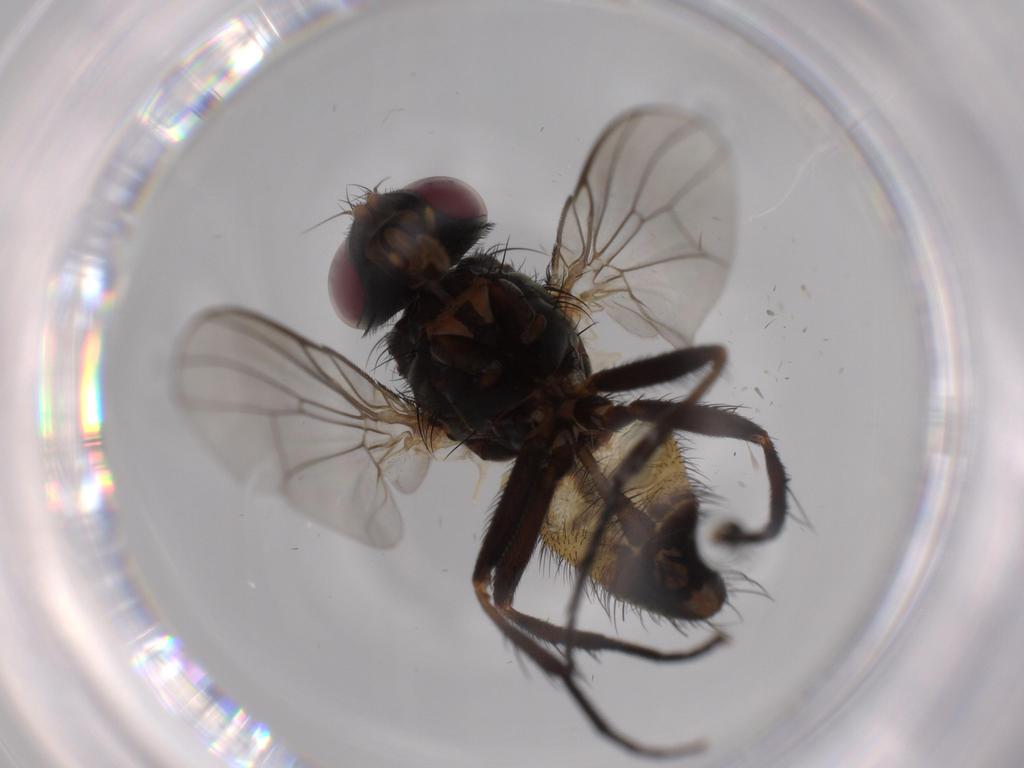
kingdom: Animalia
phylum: Arthropoda
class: Insecta
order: Diptera
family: Fannia
